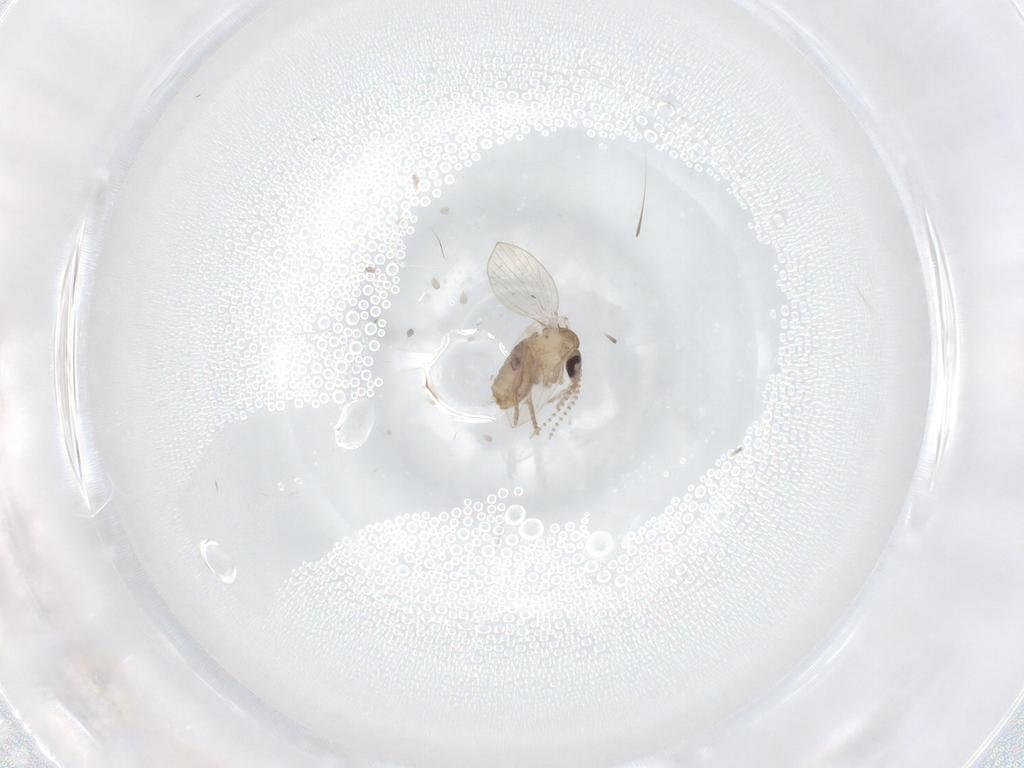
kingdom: Animalia
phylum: Arthropoda
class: Insecta
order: Diptera
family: Psychodidae
